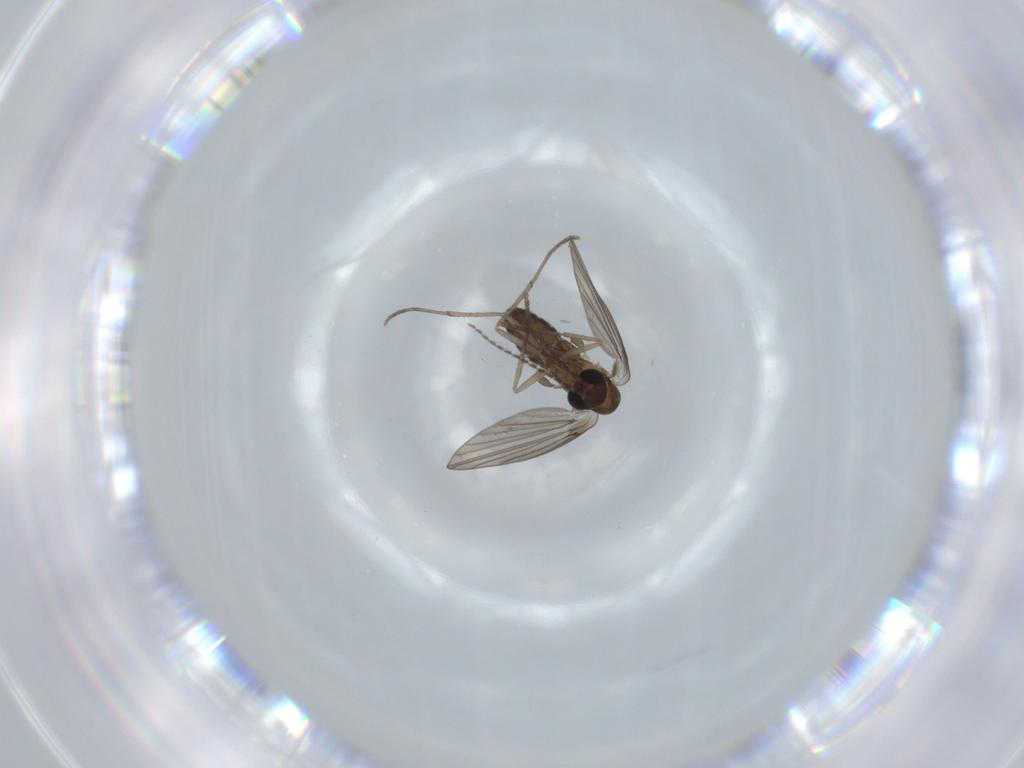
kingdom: Animalia
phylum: Arthropoda
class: Insecta
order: Diptera
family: Psychodidae
